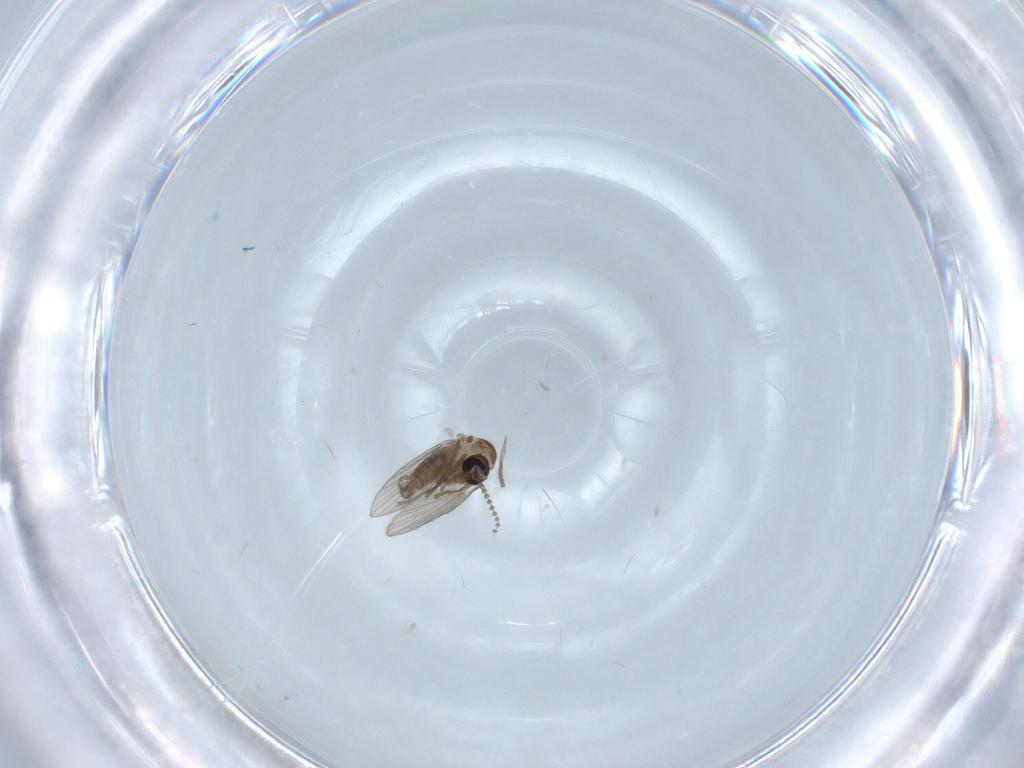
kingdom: Animalia
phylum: Arthropoda
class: Insecta
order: Diptera
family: Psychodidae
